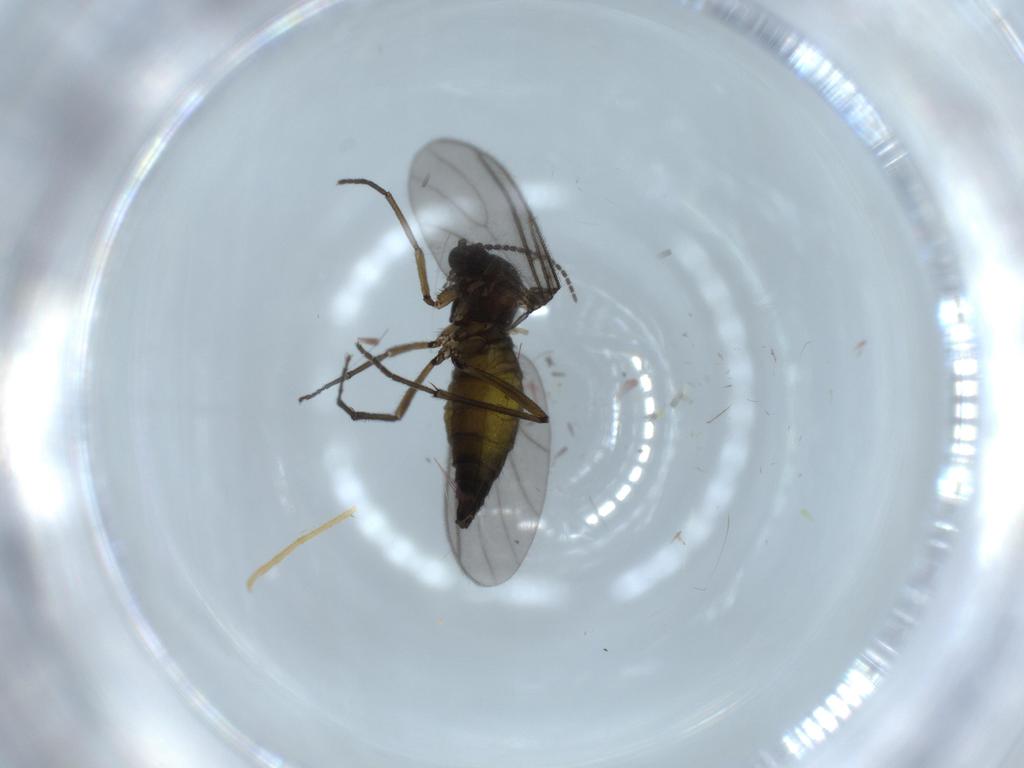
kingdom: Animalia
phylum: Arthropoda
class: Insecta
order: Diptera
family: Sciaridae
